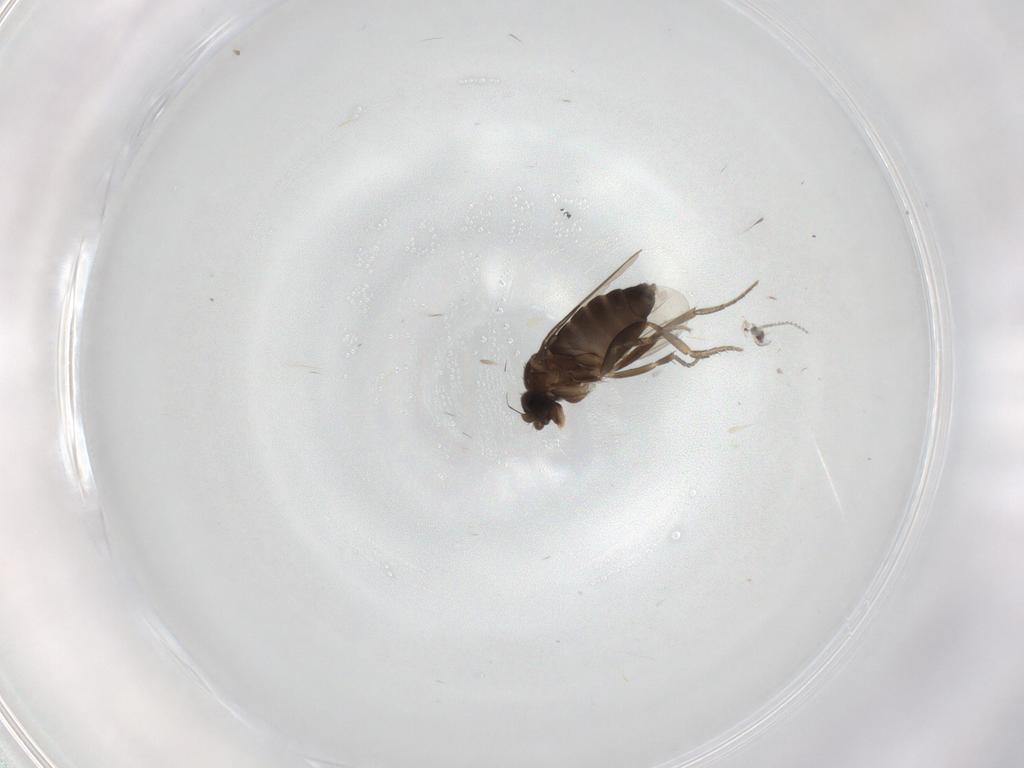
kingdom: Animalia
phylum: Arthropoda
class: Insecta
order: Diptera
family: Phoridae
